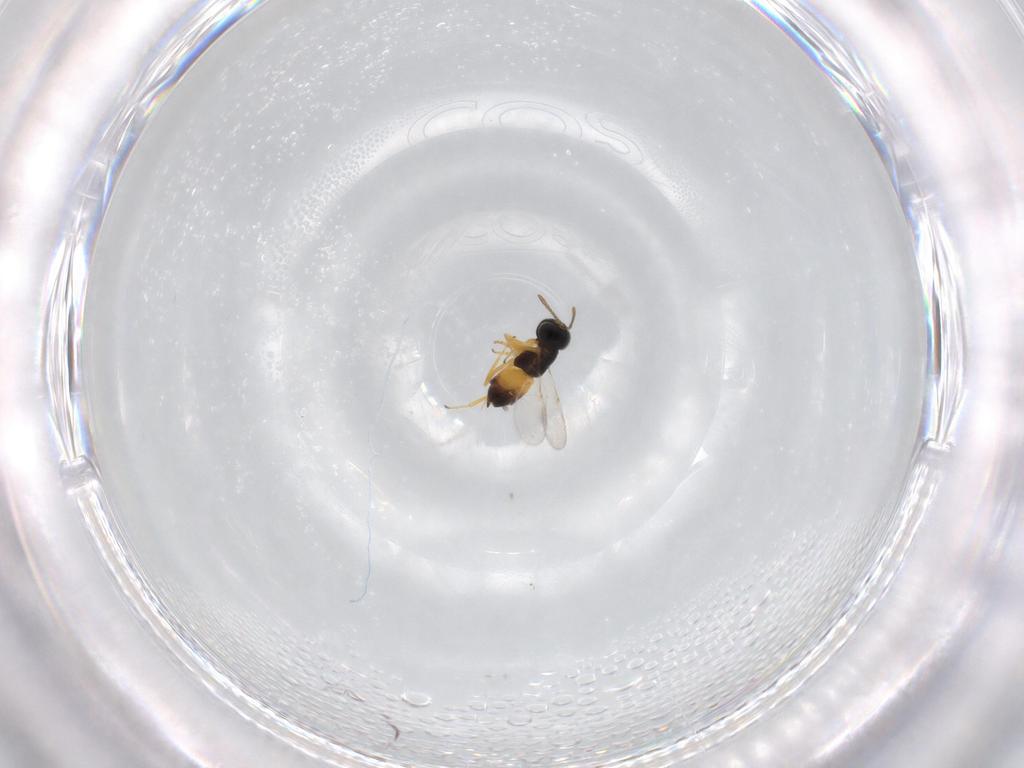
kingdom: Animalia
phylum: Arthropoda
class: Insecta
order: Hymenoptera
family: Encyrtidae
